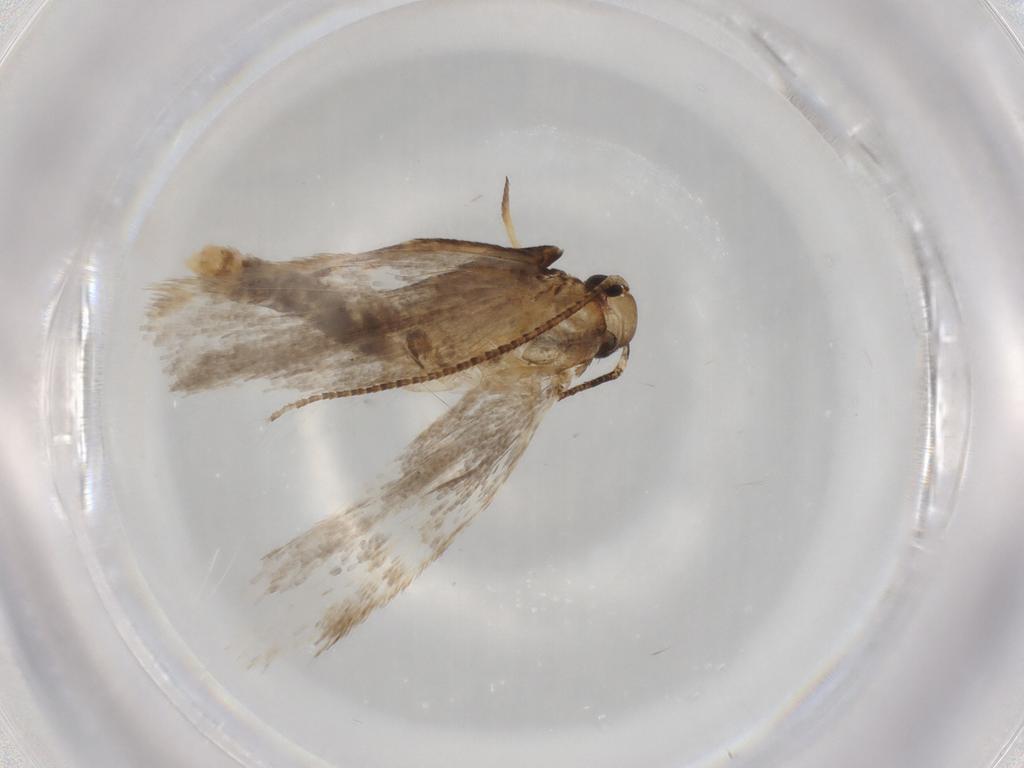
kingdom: Animalia
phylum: Arthropoda
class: Insecta
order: Lepidoptera
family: Gelechiidae
